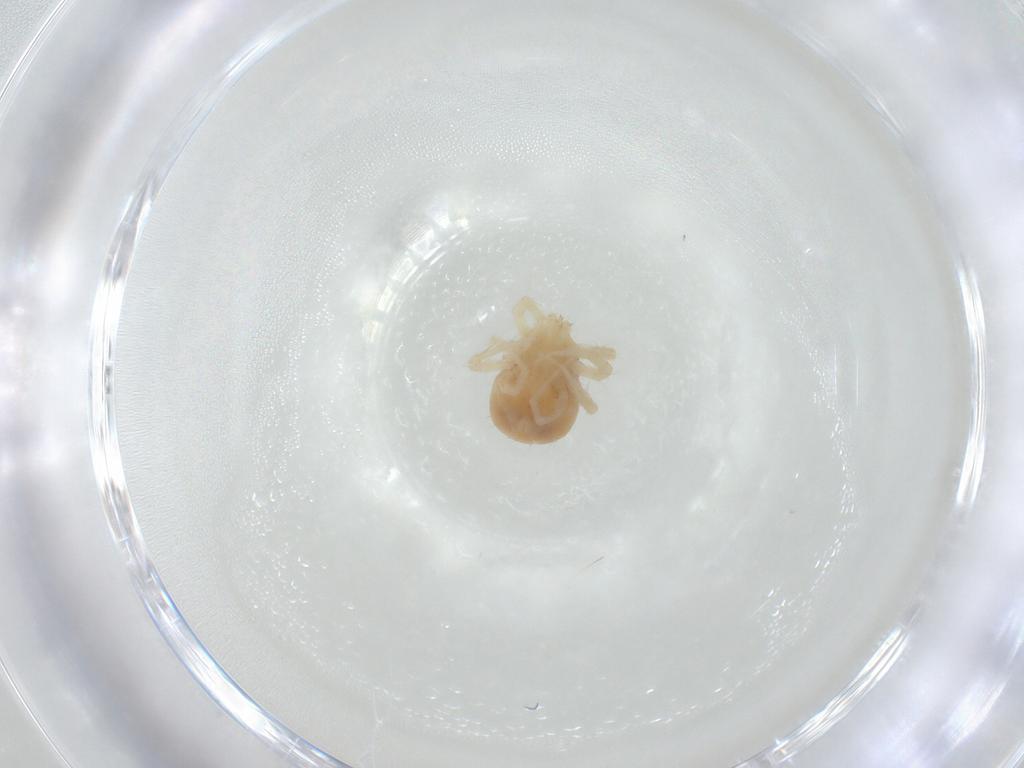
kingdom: Animalia
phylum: Arthropoda
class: Arachnida
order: Trombidiformes
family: Anystidae
